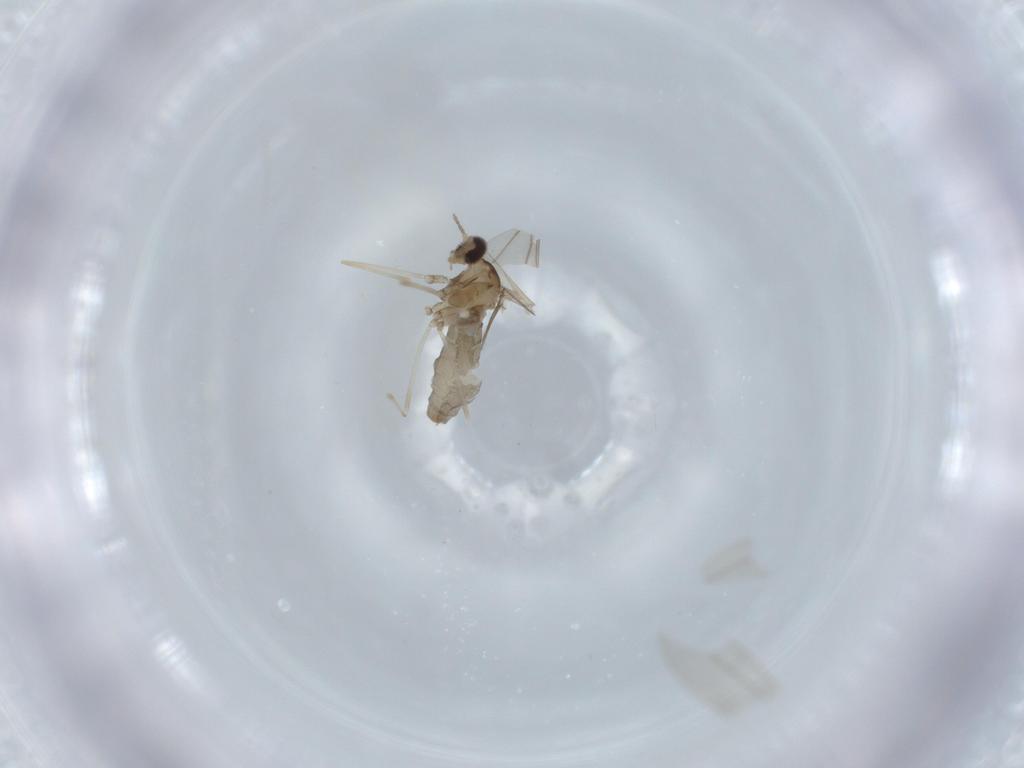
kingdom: Animalia
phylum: Arthropoda
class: Insecta
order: Diptera
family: Cecidomyiidae
